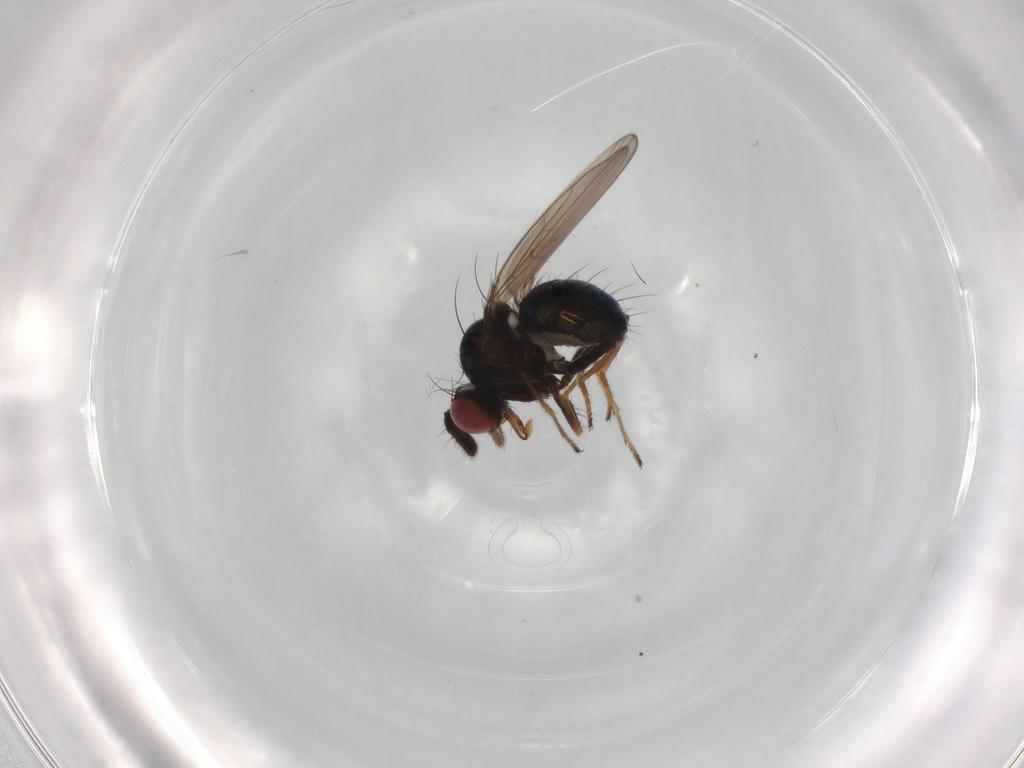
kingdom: Animalia
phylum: Arthropoda
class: Insecta
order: Diptera
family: Ephydridae
